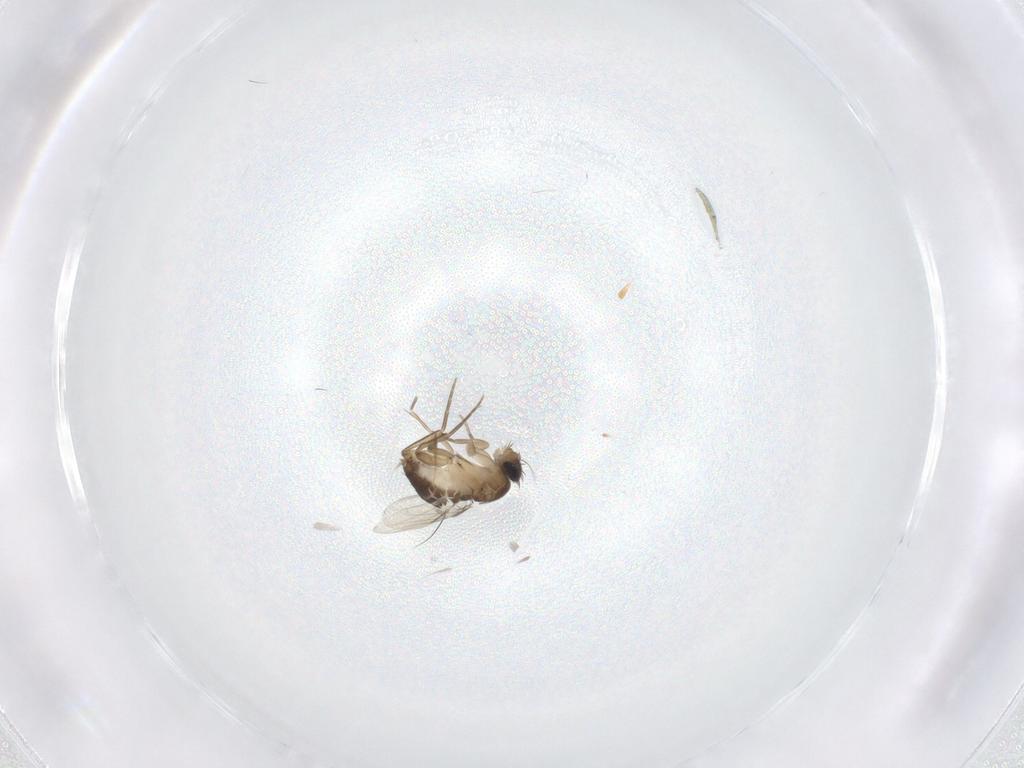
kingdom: Animalia
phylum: Arthropoda
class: Insecta
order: Diptera
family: Phoridae
